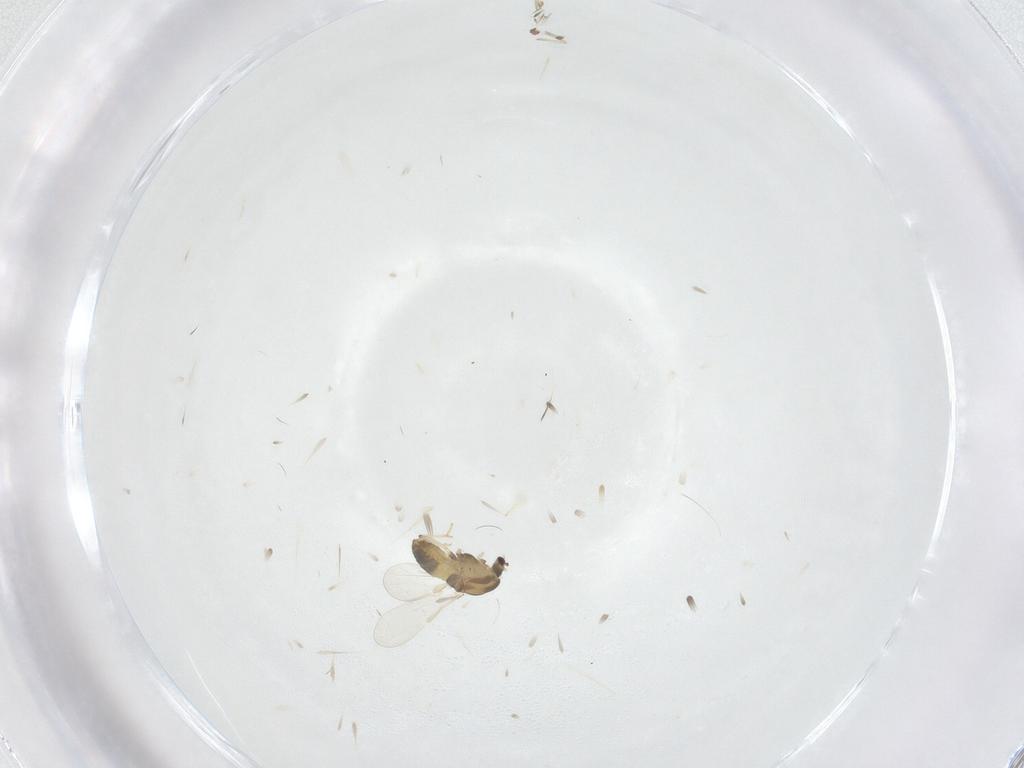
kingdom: Animalia
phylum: Arthropoda
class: Insecta
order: Diptera
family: Chironomidae
